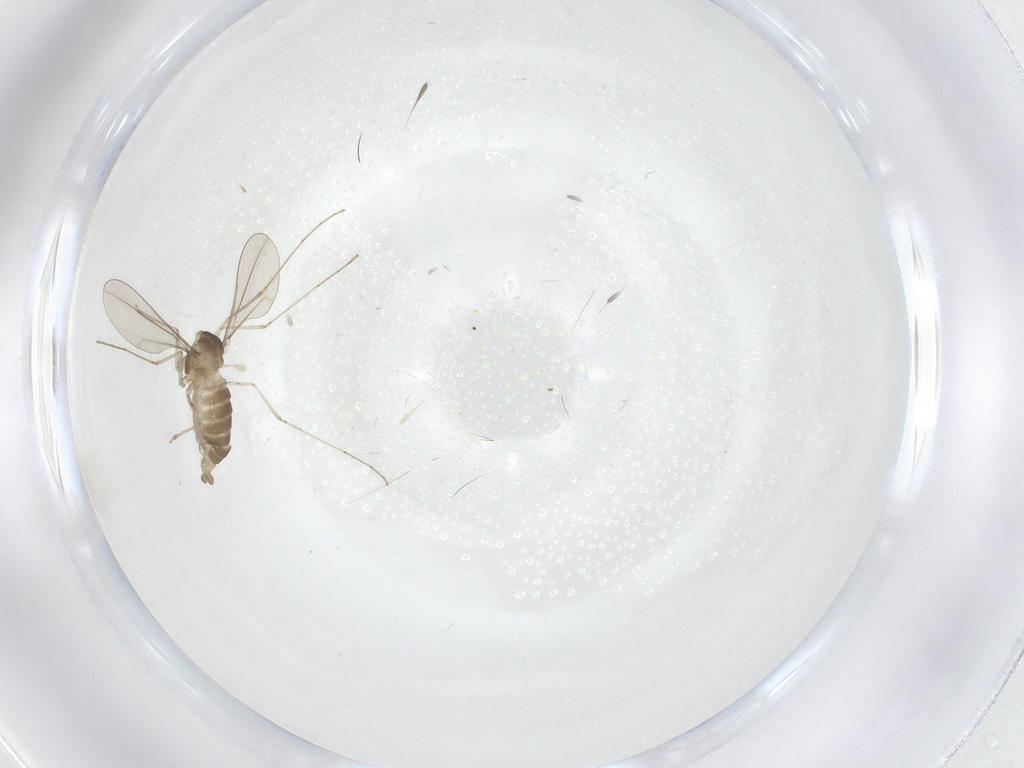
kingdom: Animalia
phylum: Arthropoda
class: Insecta
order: Diptera
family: Cecidomyiidae
